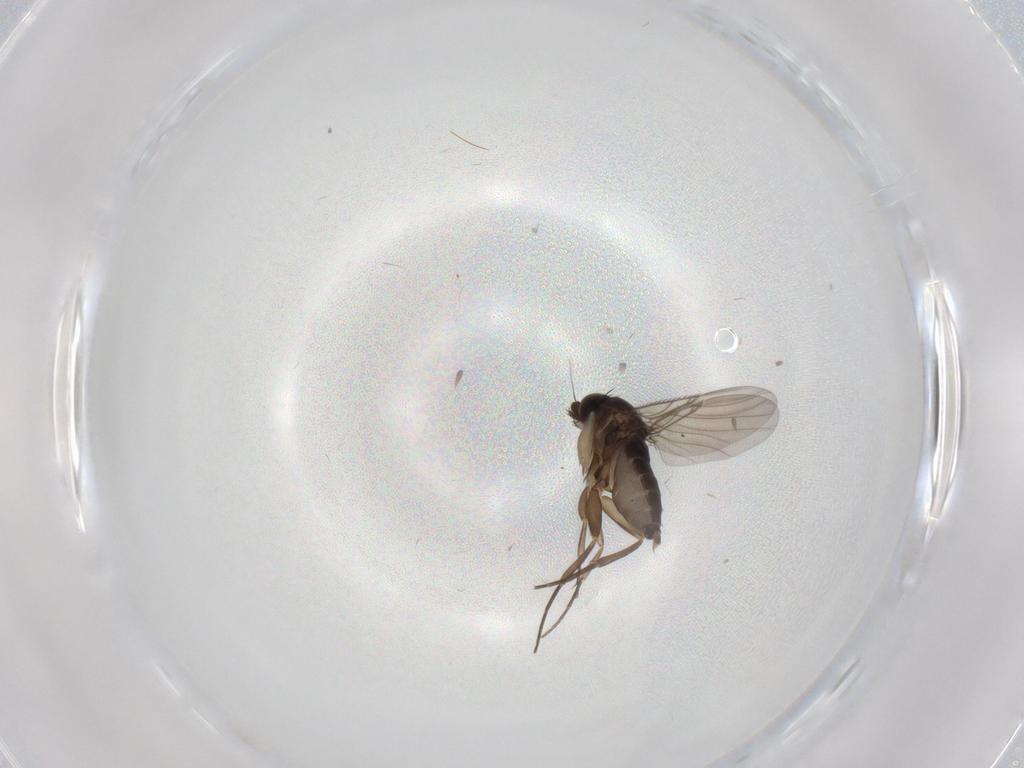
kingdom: Animalia
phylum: Arthropoda
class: Insecta
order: Diptera
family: Phoridae
